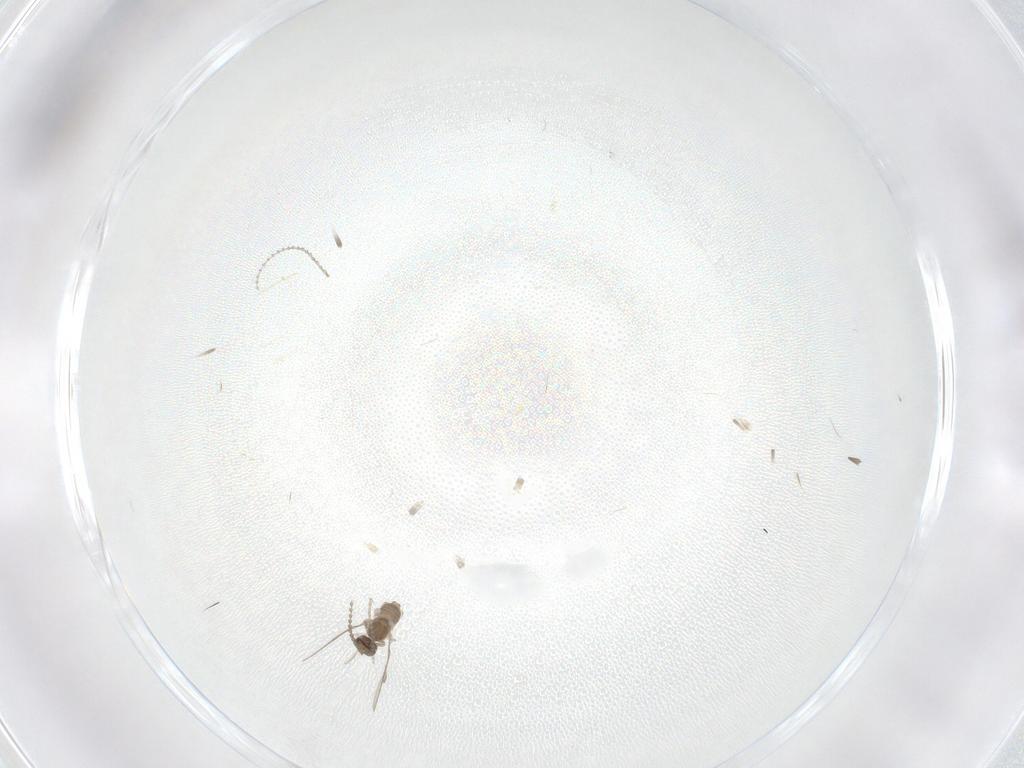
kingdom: Animalia
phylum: Arthropoda
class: Insecta
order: Diptera
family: Cecidomyiidae
